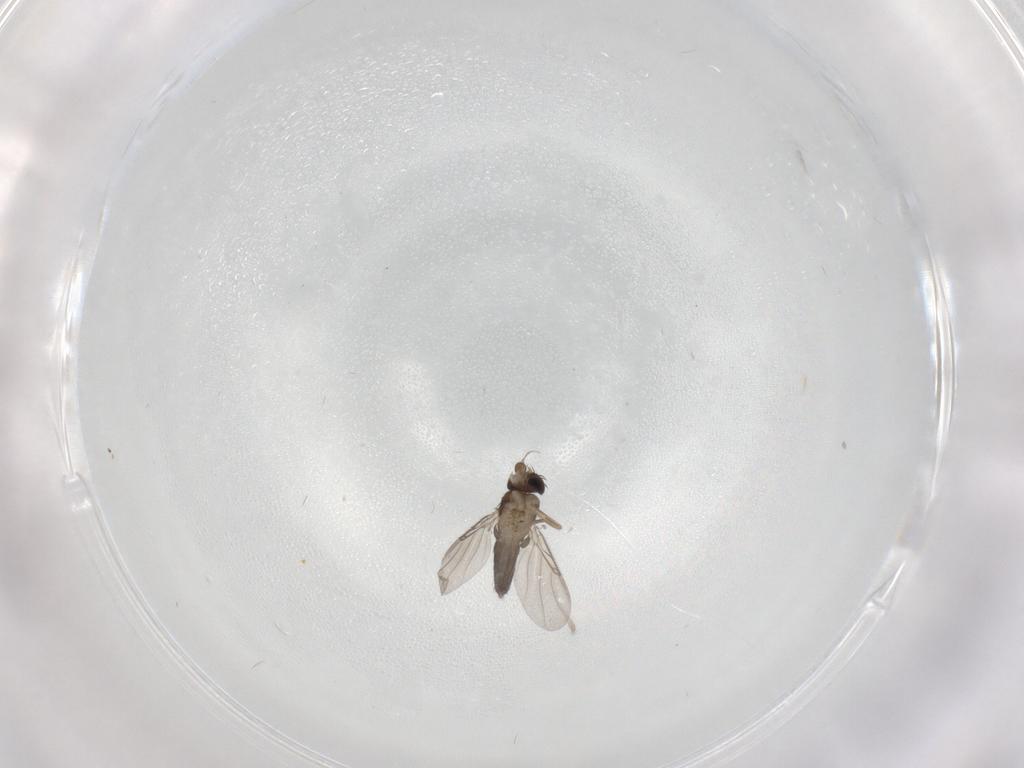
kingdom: Animalia
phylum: Arthropoda
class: Insecta
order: Diptera
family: Phoridae
